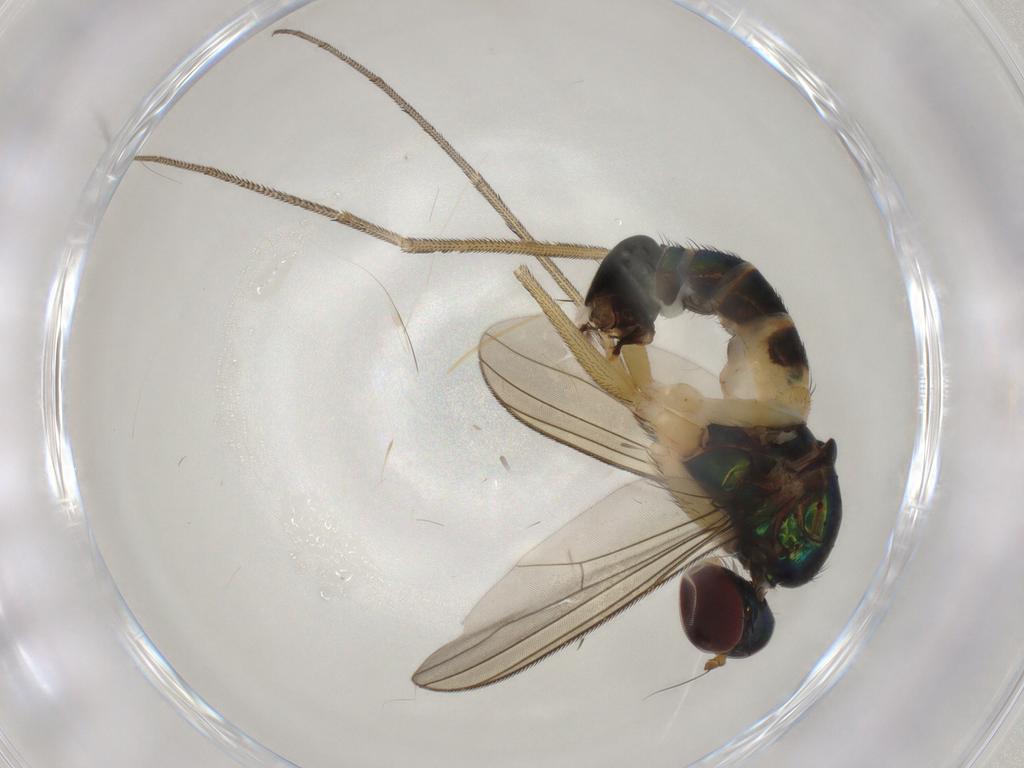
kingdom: Animalia
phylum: Arthropoda
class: Insecta
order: Diptera
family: Dolichopodidae
